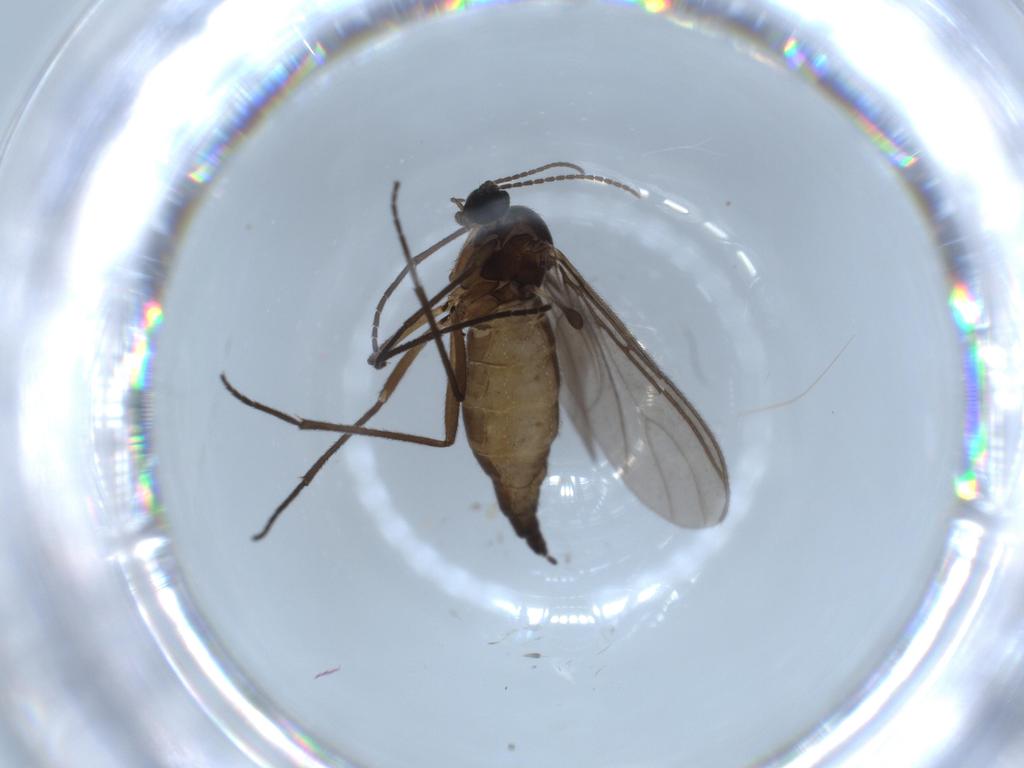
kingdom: Animalia
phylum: Arthropoda
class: Insecta
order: Diptera
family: Sciaridae
